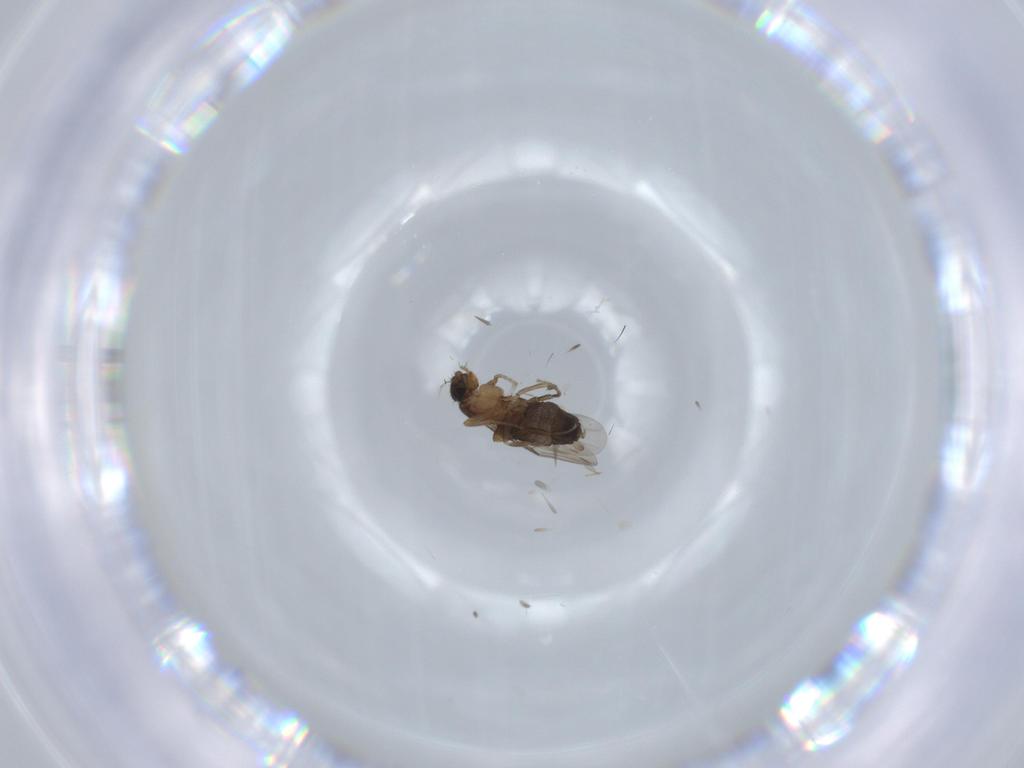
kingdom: Animalia
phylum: Arthropoda
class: Insecta
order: Diptera
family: Phoridae
